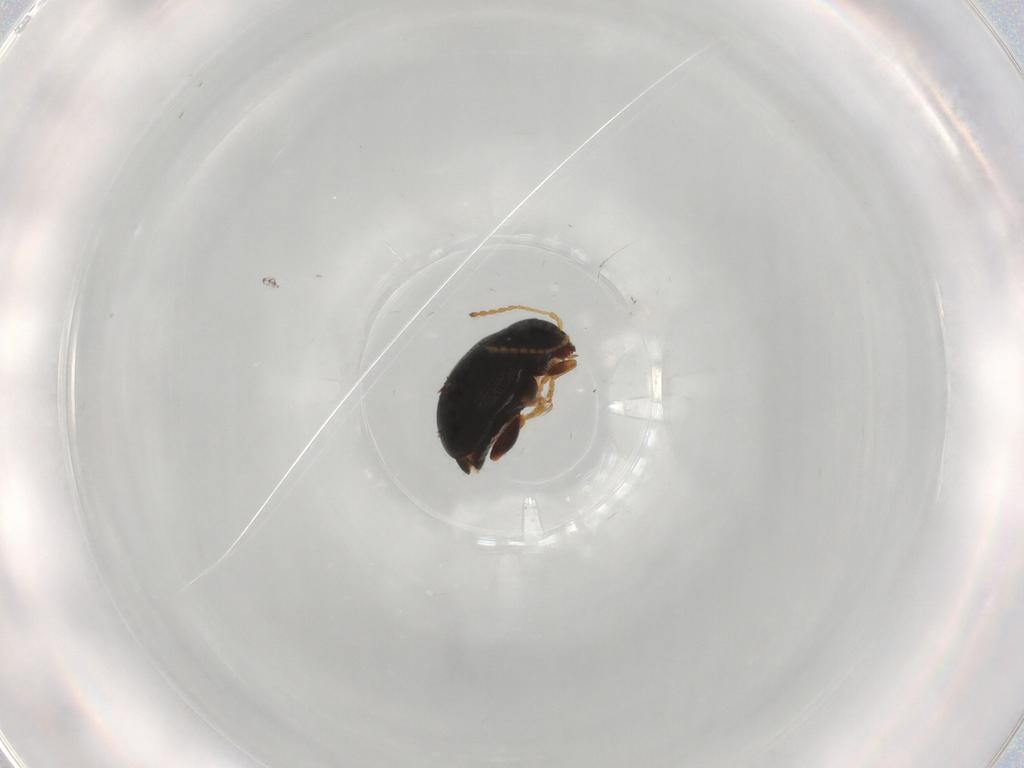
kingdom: Animalia
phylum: Arthropoda
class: Insecta
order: Coleoptera
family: Chrysomelidae
